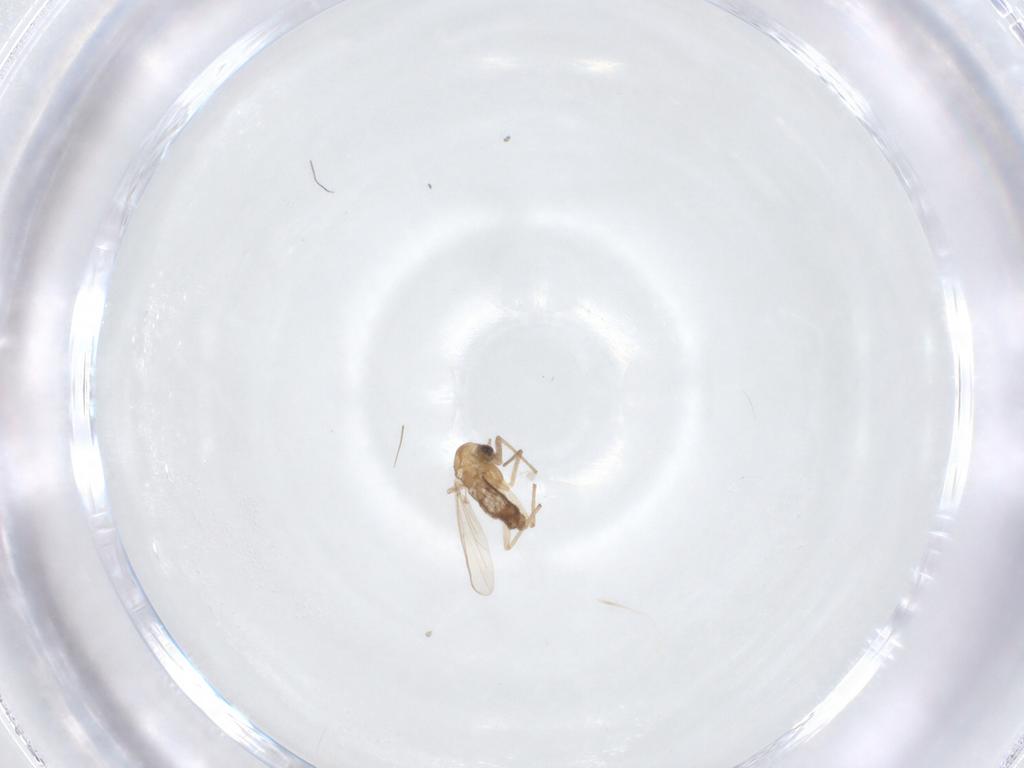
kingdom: Animalia
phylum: Arthropoda
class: Insecta
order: Diptera
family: Chironomidae
